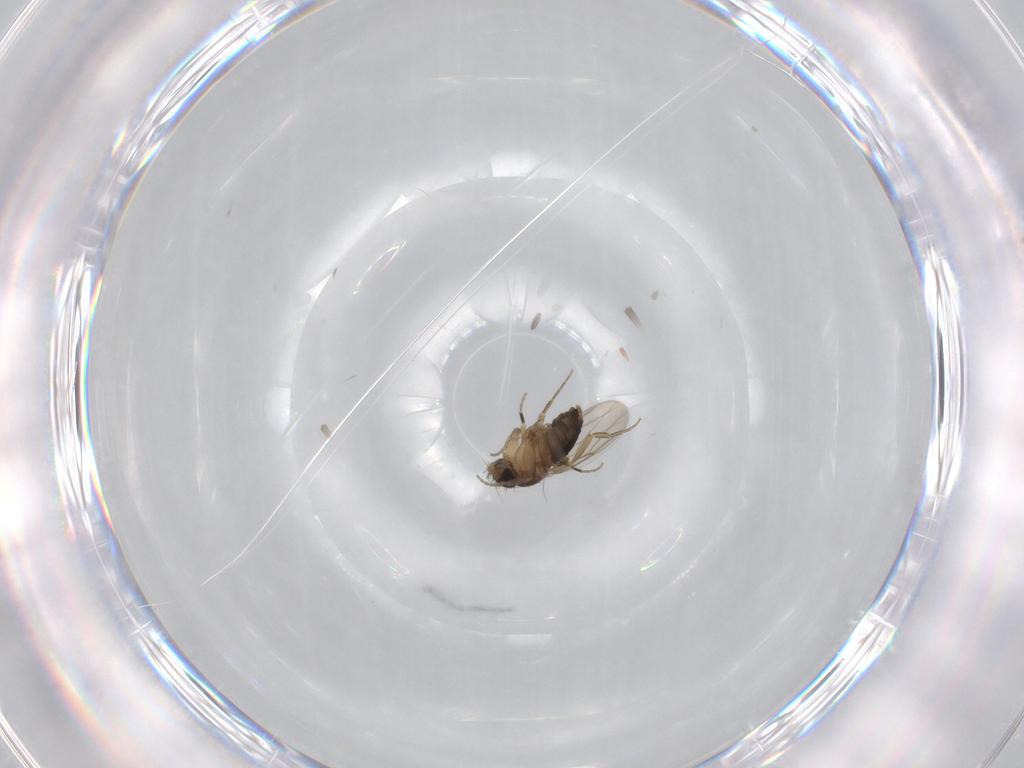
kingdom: Animalia
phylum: Arthropoda
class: Insecta
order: Diptera
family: Phoridae
